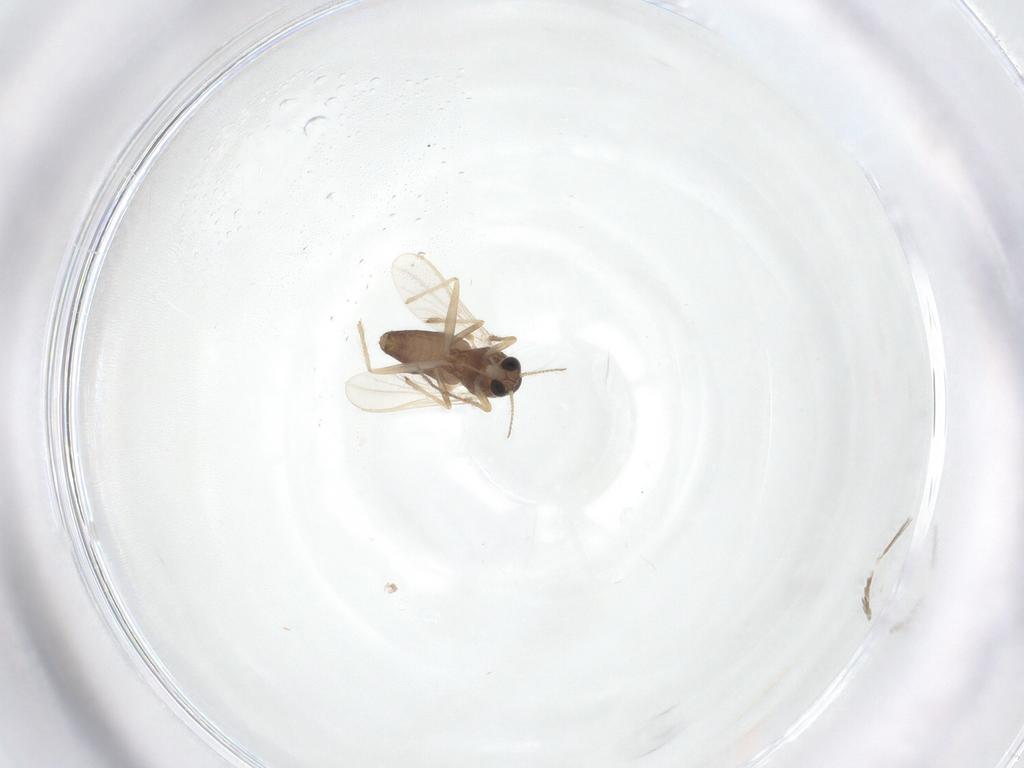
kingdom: Animalia
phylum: Arthropoda
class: Insecta
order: Diptera
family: Chironomidae
